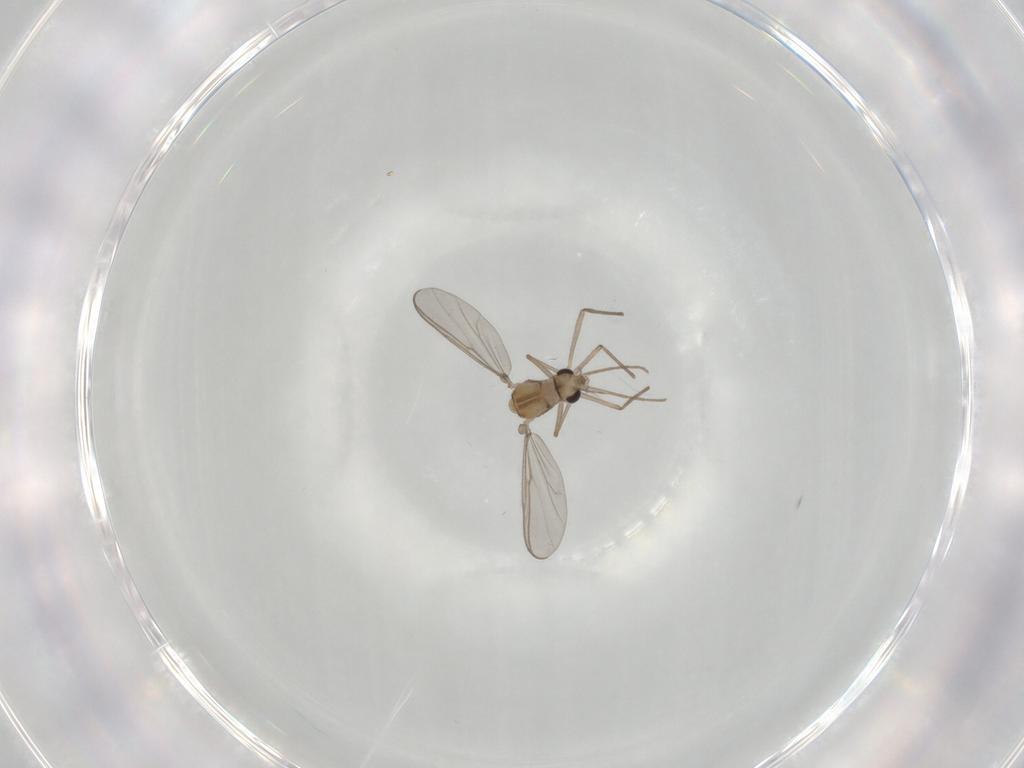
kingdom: Animalia
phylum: Arthropoda
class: Insecta
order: Diptera
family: Chironomidae
